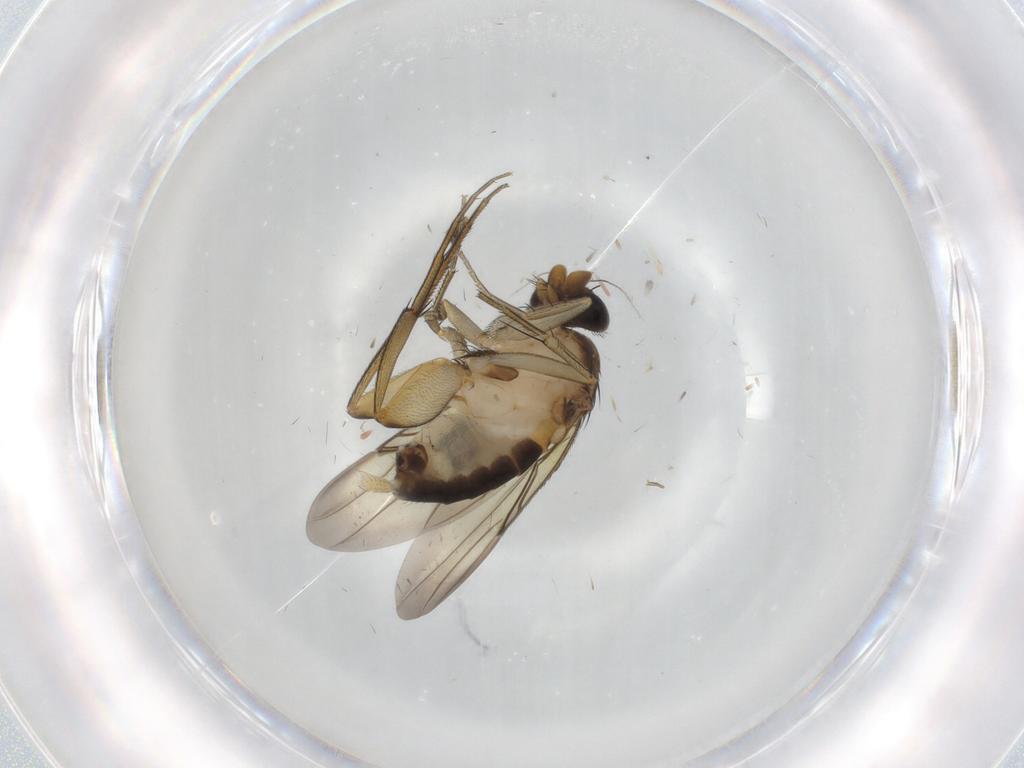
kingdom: Animalia
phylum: Arthropoda
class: Insecta
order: Diptera
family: Phoridae
